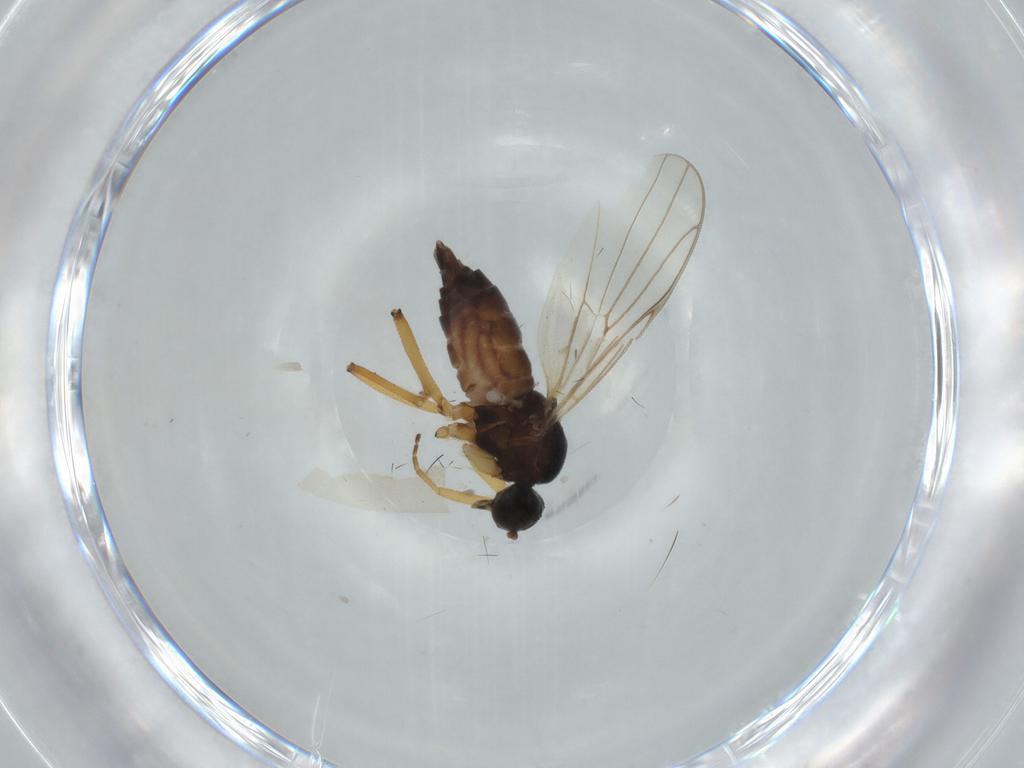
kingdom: Animalia
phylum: Arthropoda
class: Insecta
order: Diptera
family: Hybotidae
